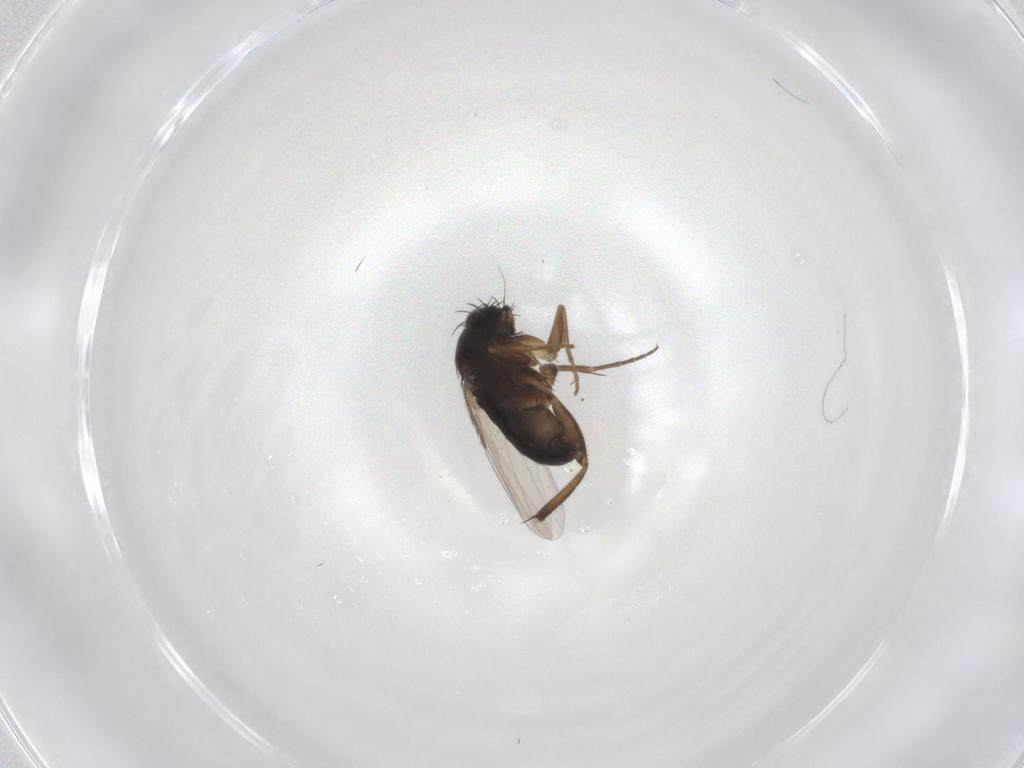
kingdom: Animalia
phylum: Arthropoda
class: Insecta
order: Diptera
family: Phoridae
